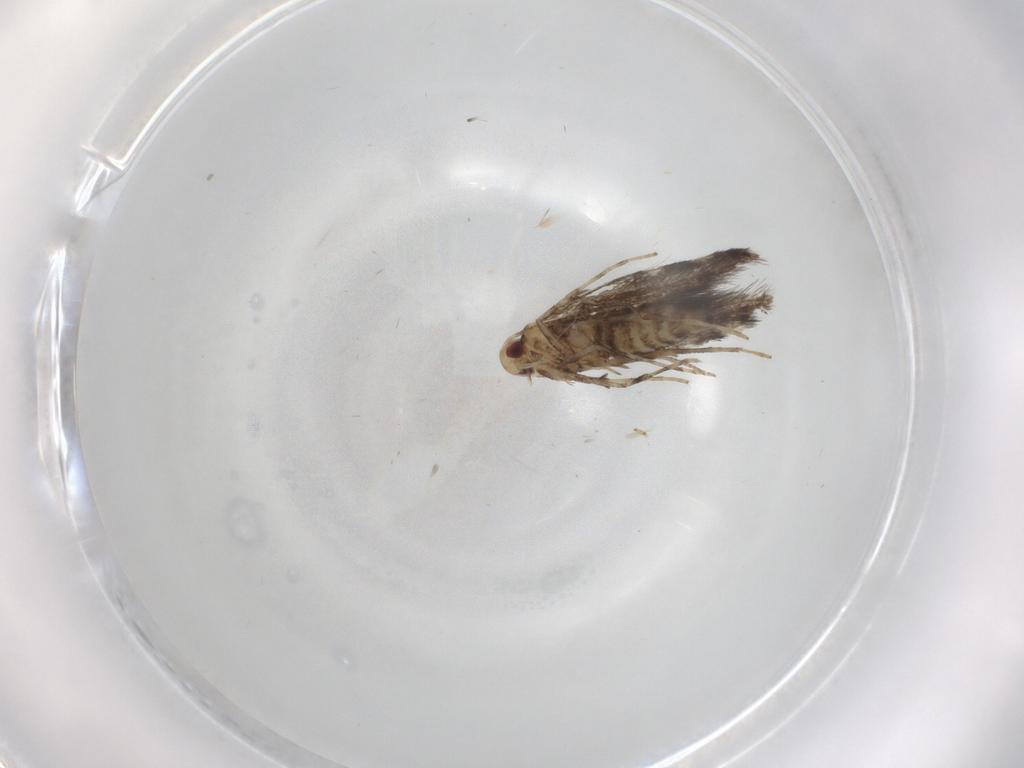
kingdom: Animalia
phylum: Arthropoda
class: Insecta
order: Lepidoptera
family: Gracillariidae
